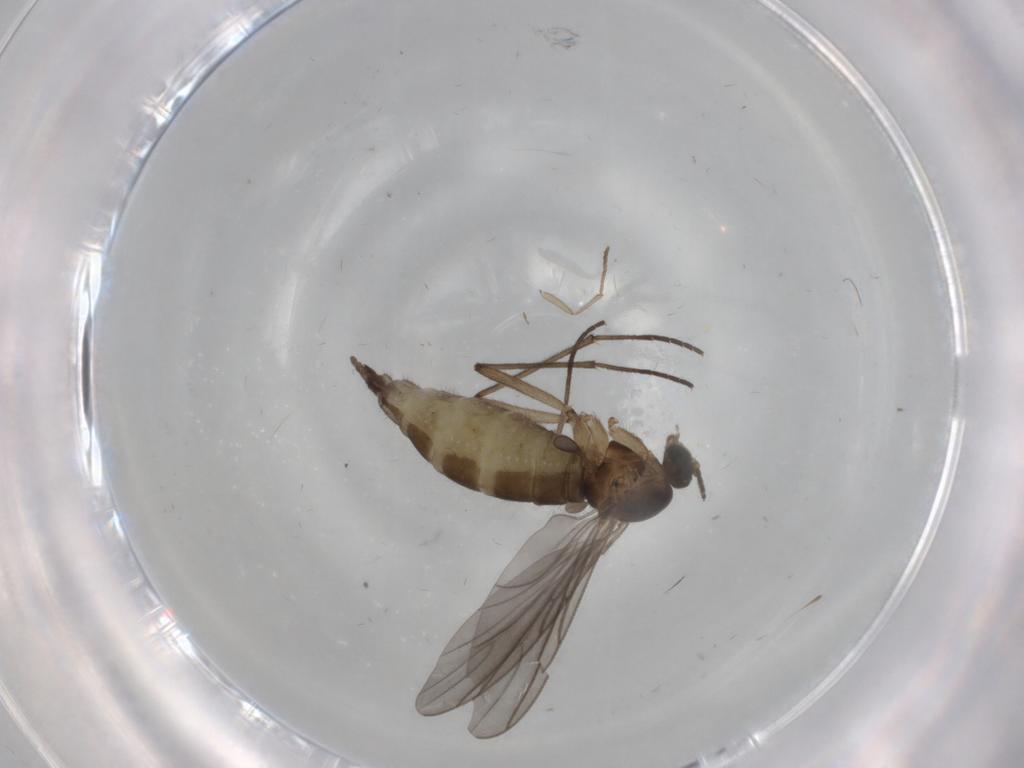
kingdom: Animalia
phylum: Arthropoda
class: Insecta
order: Diptera
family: Cecidomyiidae
